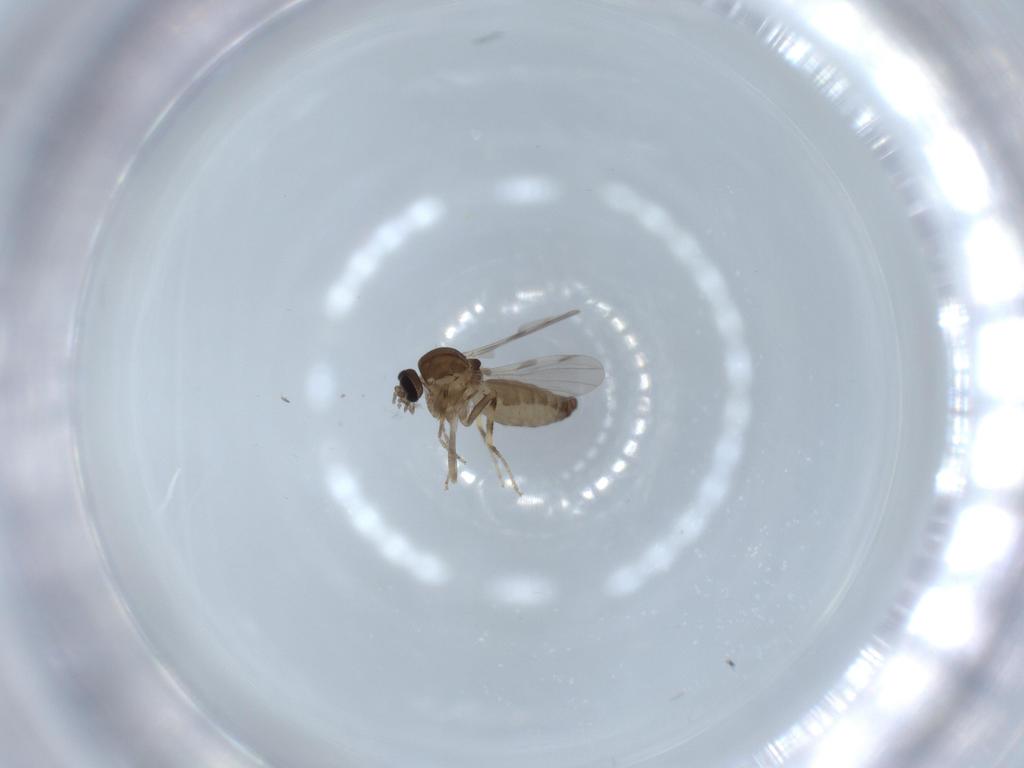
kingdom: Animalia
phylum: Arthropoda
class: Insecta
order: Diptera
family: Ceratopogonidae
